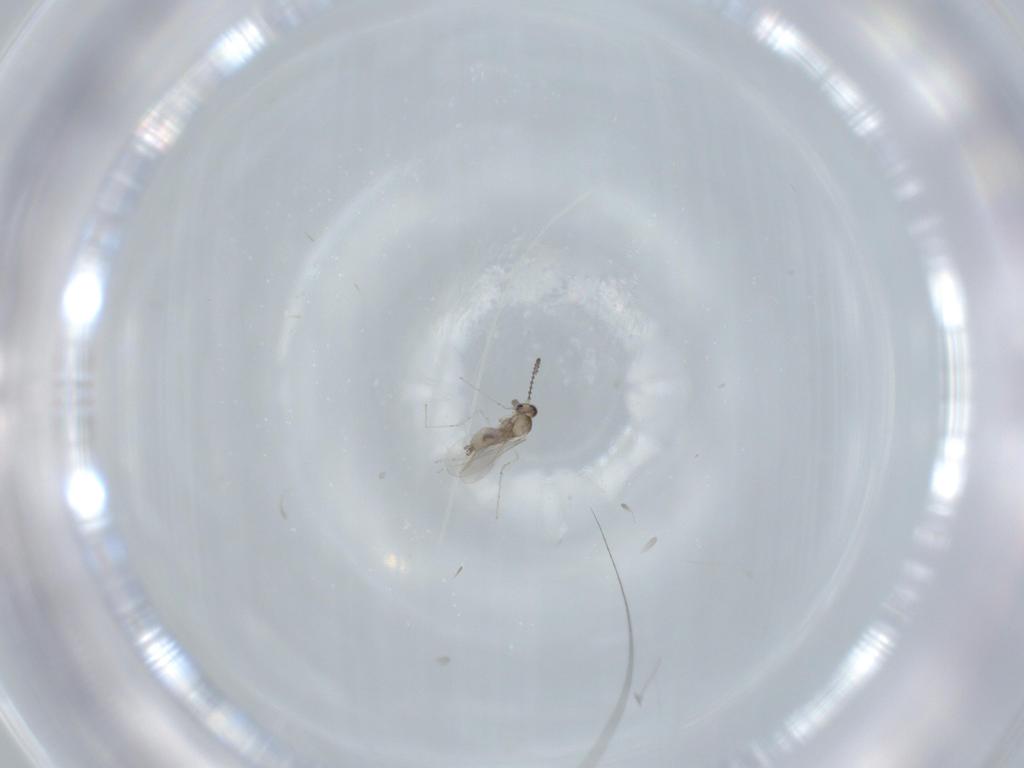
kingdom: Animalia
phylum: Arthropoda
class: Insecta
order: Diptera
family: Cecidomyiidae
